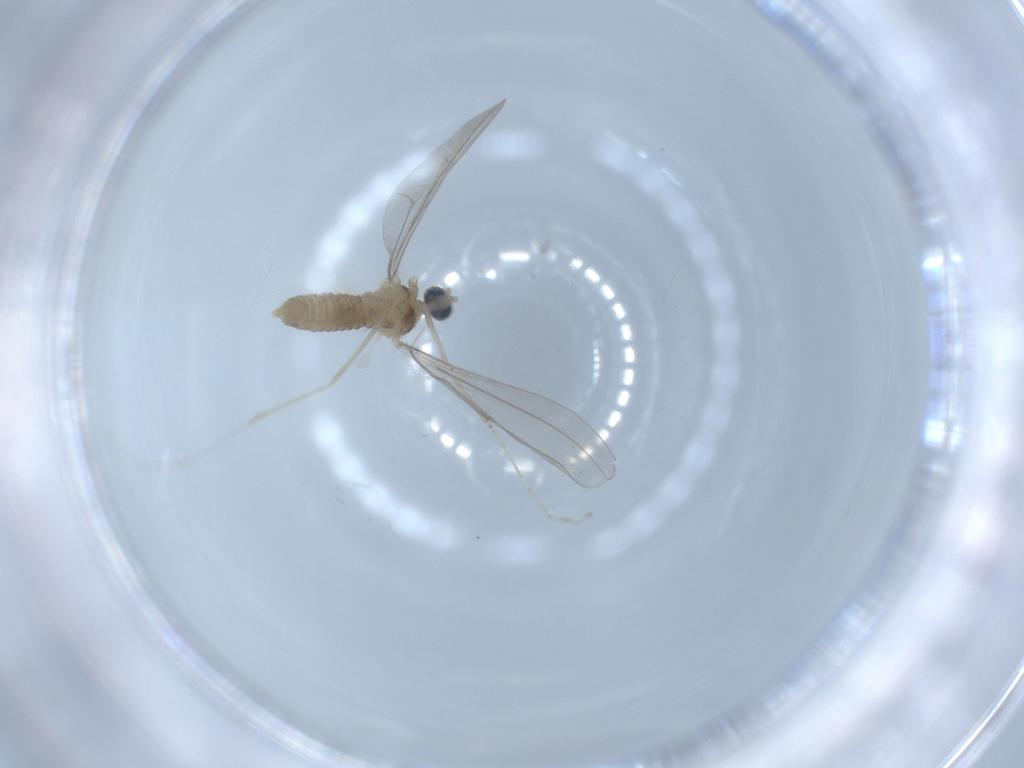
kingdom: Animalia
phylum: Arthropoda
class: Insecta
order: Diptera
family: Cecidomyiidae
